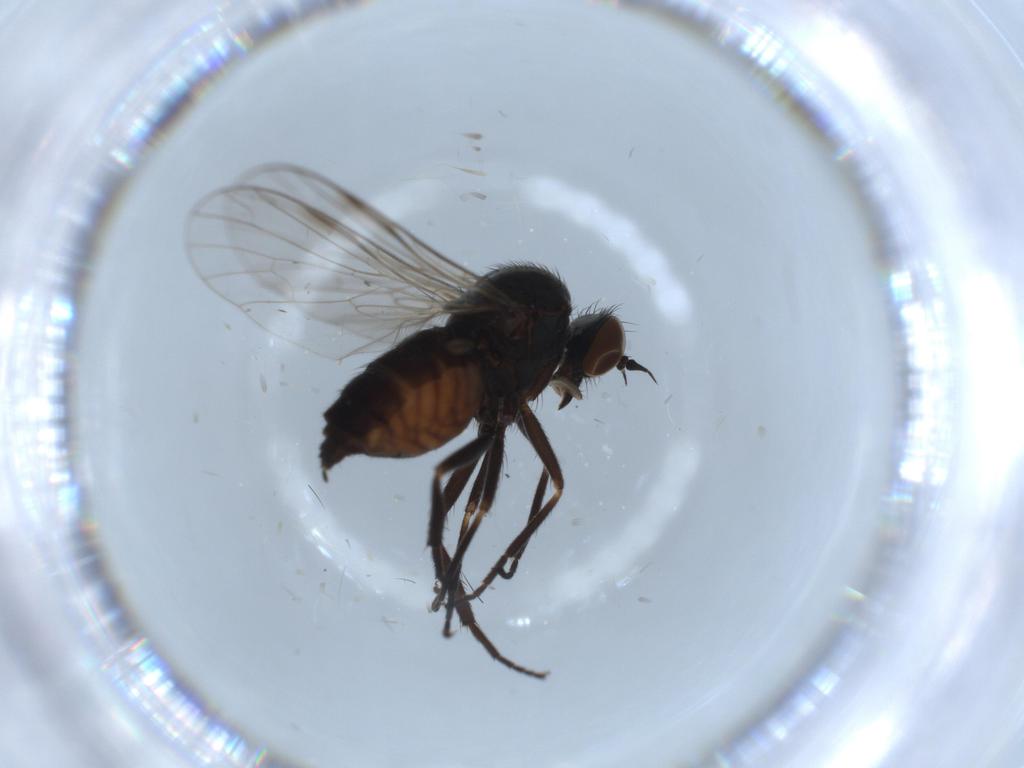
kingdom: Animalia
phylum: Arthropoda
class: Insecta
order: Diptera
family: Empididae
